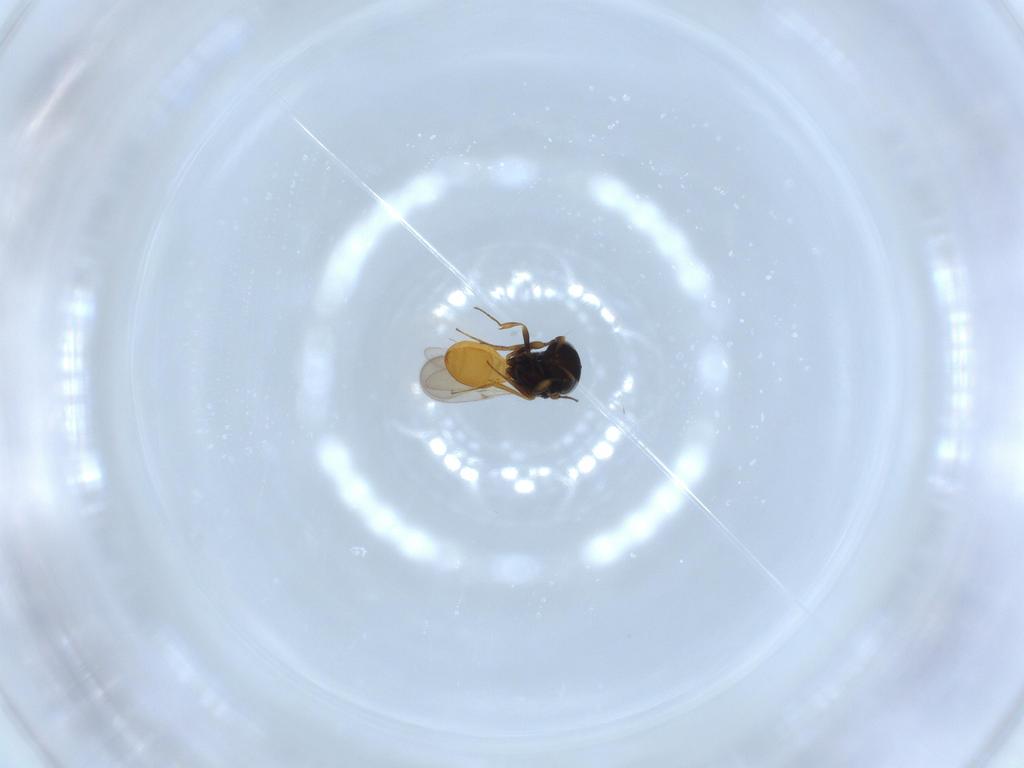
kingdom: Animalia
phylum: Arthropoda
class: Insecta
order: Hymenoptera
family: Scelionidae
